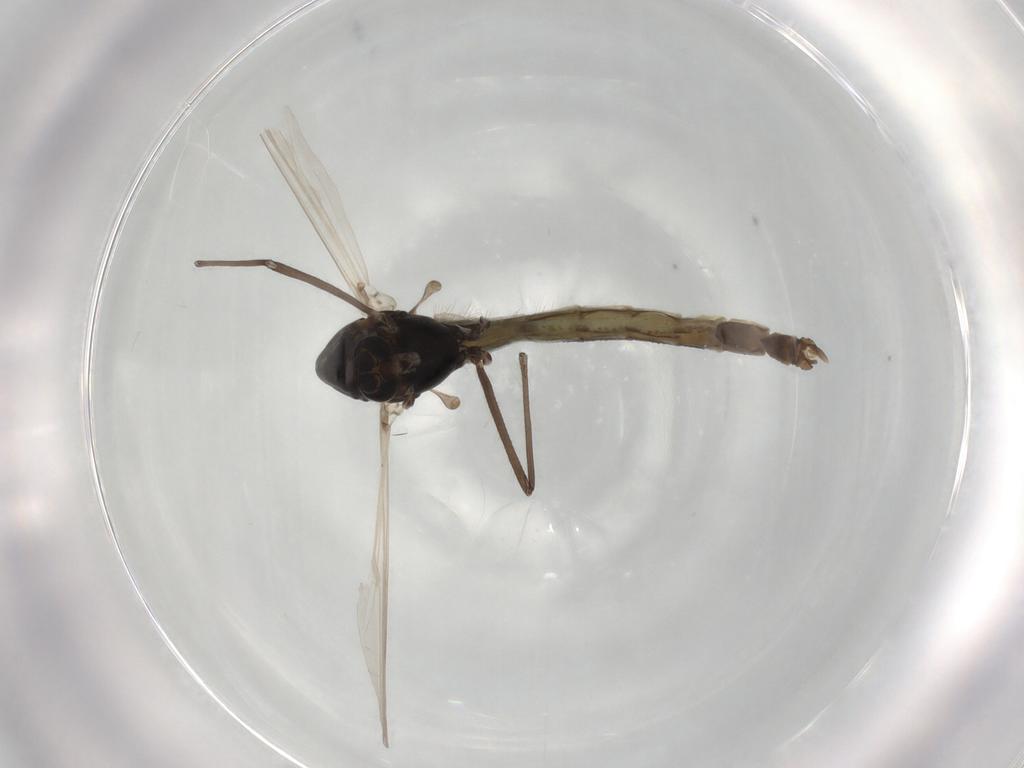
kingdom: Animalia
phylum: Arthropoda
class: Insecta
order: Diptera
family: Chironomidae
